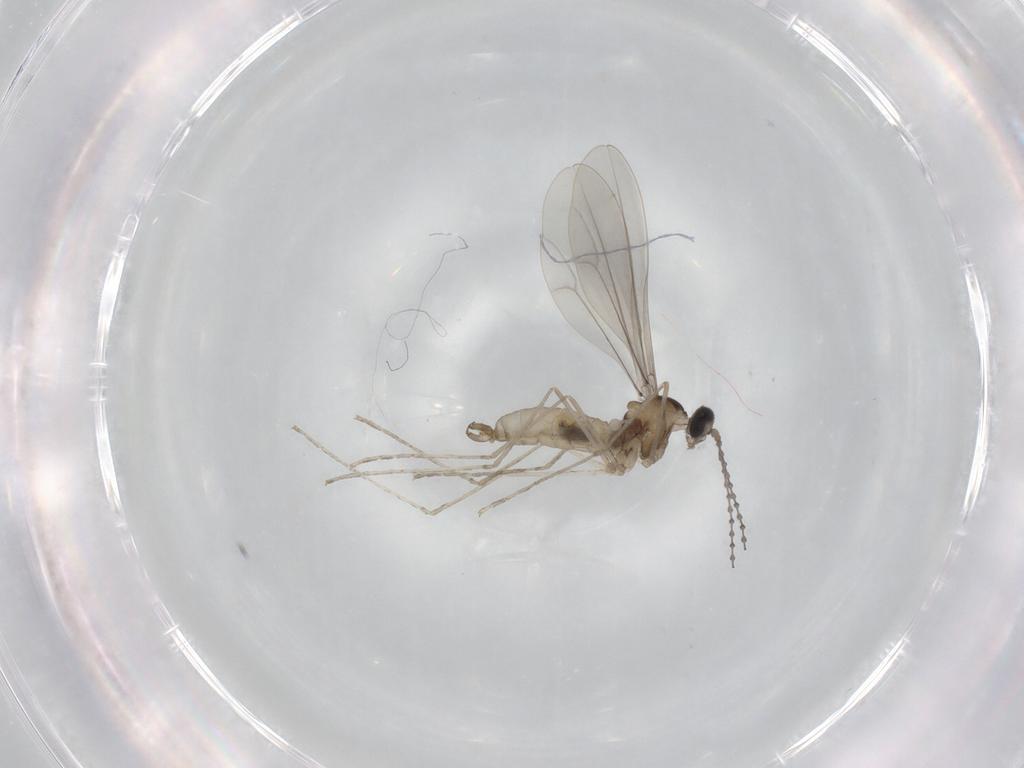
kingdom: Animalia
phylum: Arthropoda
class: Insecta
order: Diptera
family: Cecidomyiidae
